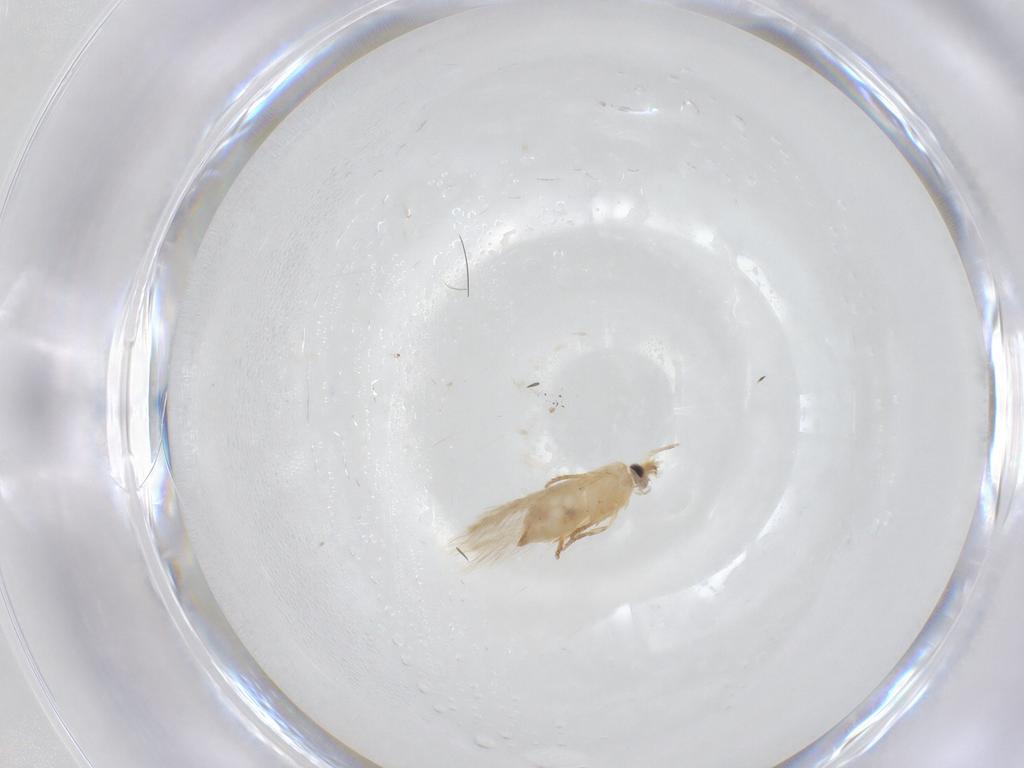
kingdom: Animalia
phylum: Arthropoda
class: Insecta
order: Lepidoptera
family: Nepticulidae
